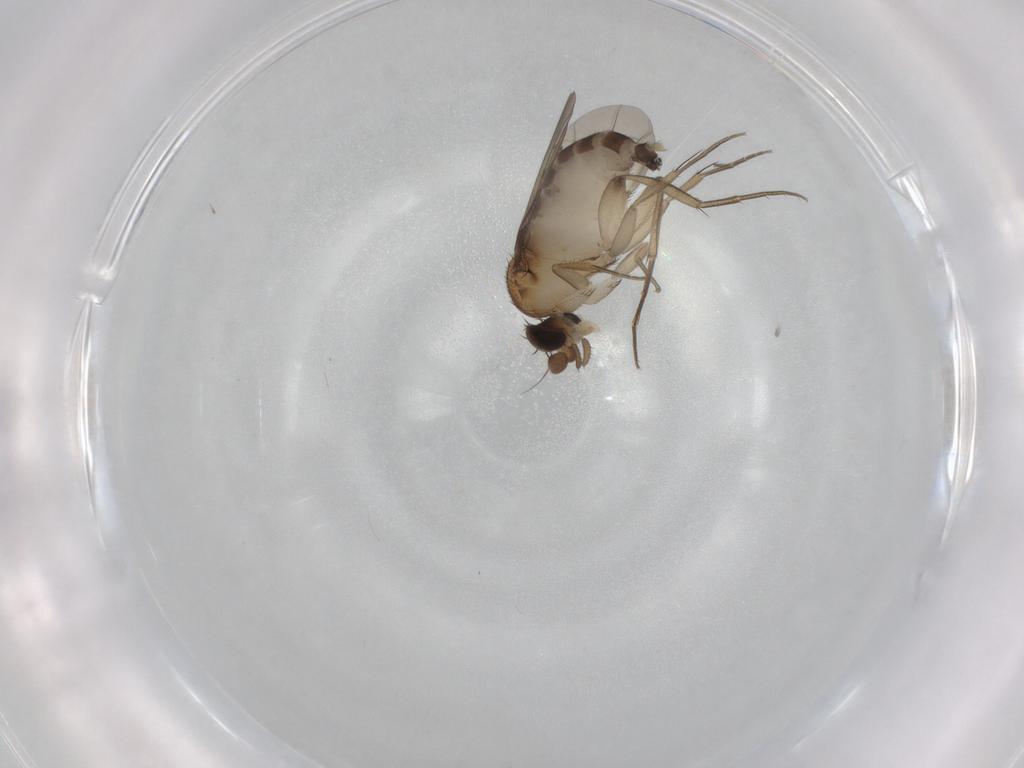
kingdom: Animalia
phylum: Arthropoda
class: Insecta
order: Diptera
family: Phoridae
